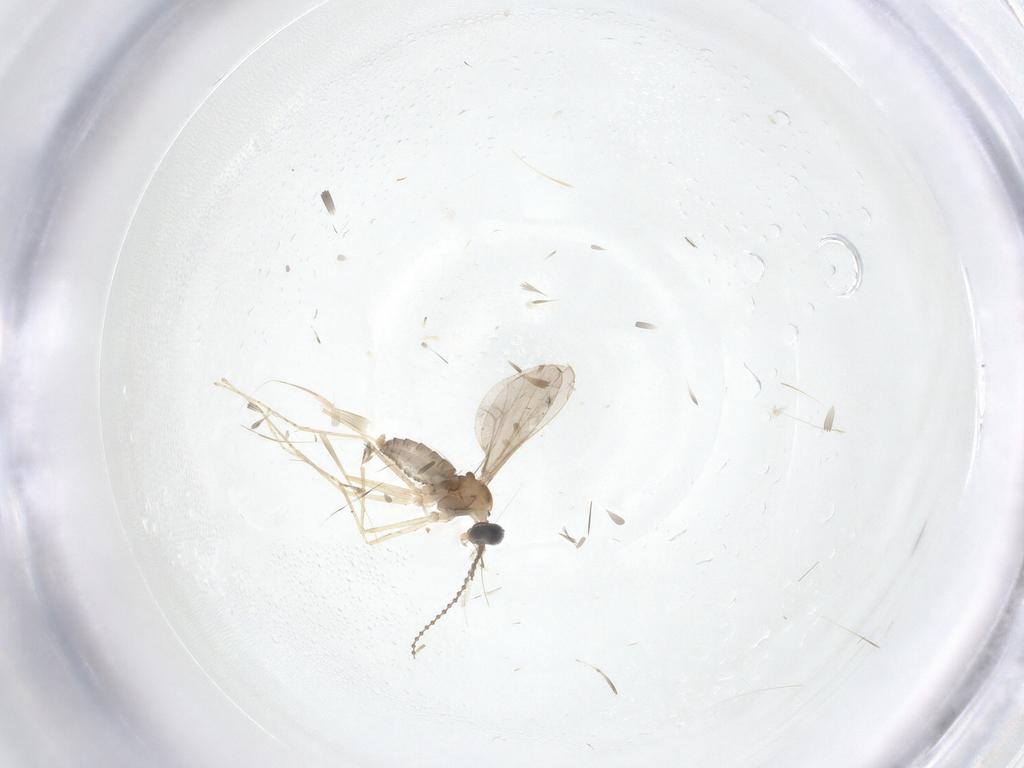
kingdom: Animalia
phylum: Arthropoda
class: Insecta
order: Diptera
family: Cecidomyiidae
